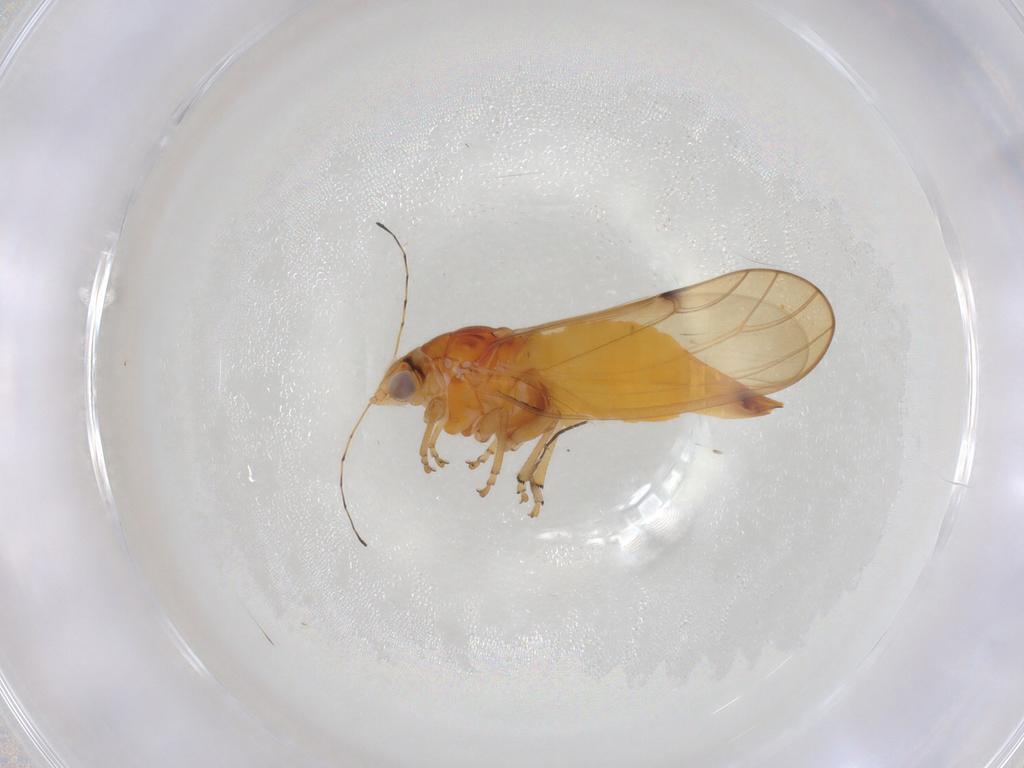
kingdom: Animalia
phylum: Arthropoda
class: Insecta
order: Diptera
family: Sciaridae
